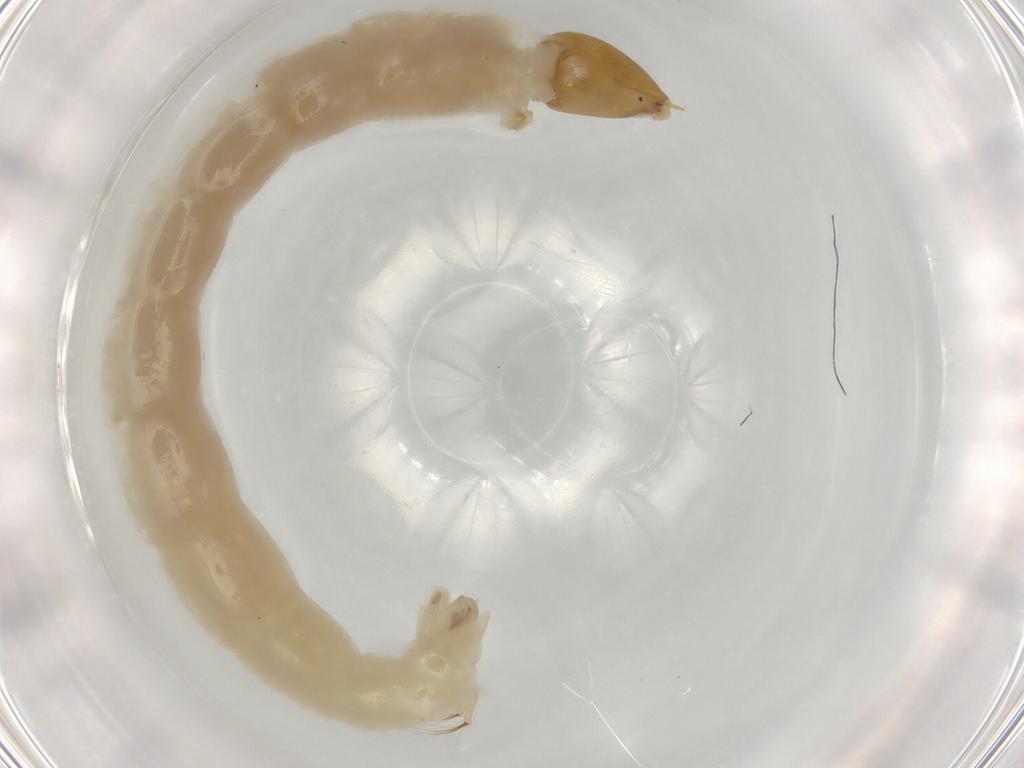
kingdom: Animalia
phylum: Arthropoda
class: Insecta
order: Diptera
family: Chironomidae
